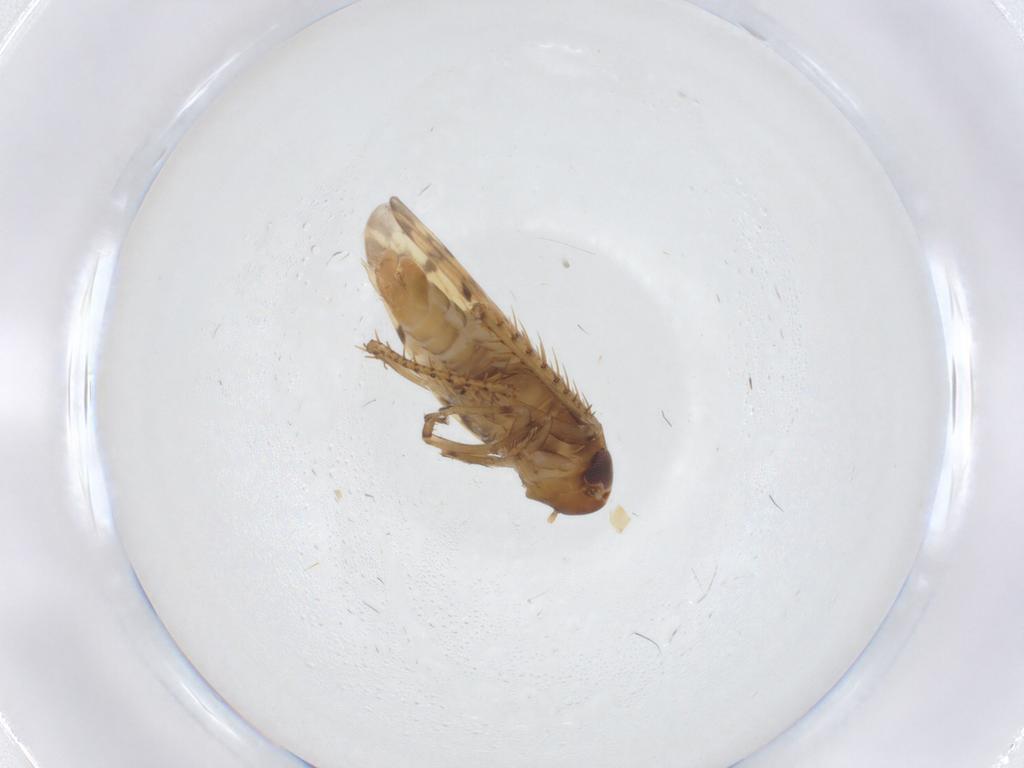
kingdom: Animalia
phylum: Arthropoda
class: Insecta
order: Hemiptera
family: Cicadellidae
